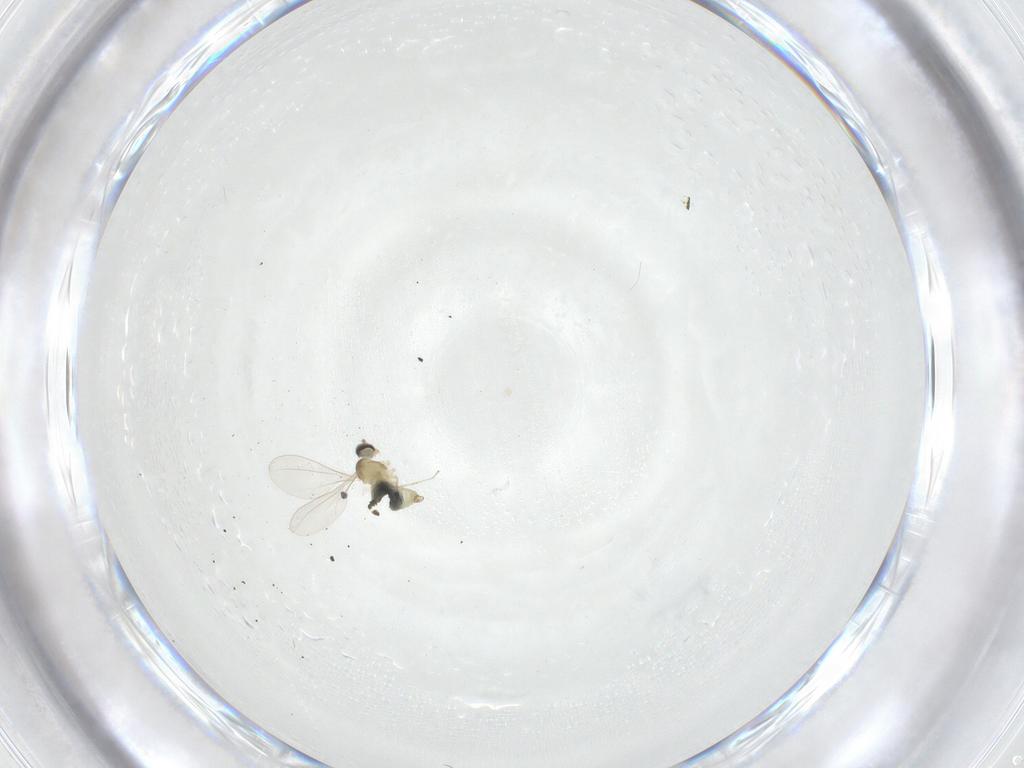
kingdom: Animalia
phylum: Arthropoda
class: Insecta
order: Diptera
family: Cecidomyiidae
